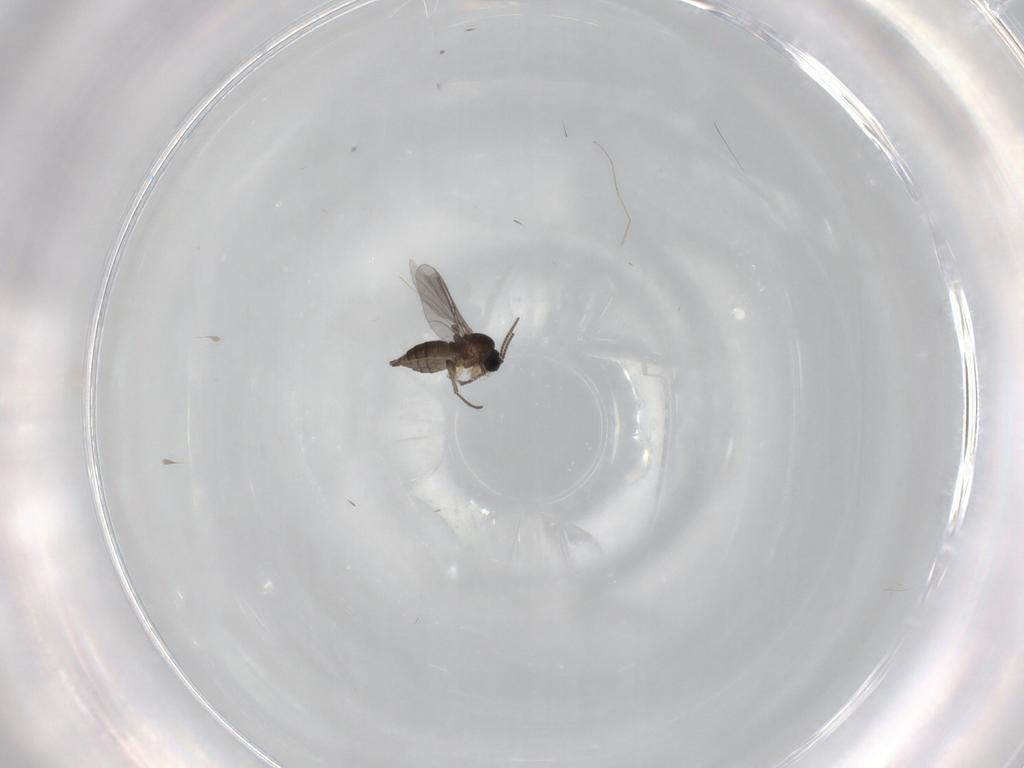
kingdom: Animalia
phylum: Arthropoda
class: Insecta
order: Diptera
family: Sciaridae
